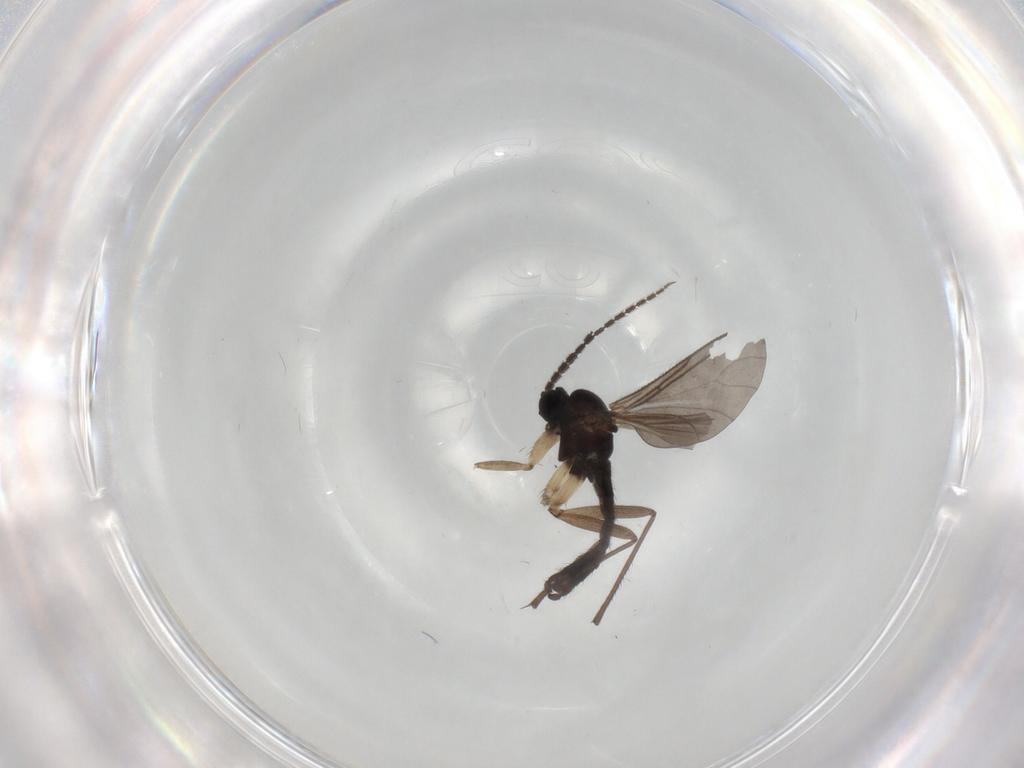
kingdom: Animalia
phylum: Arthropoda
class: Insecta
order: Diptera
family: Sciaridae
